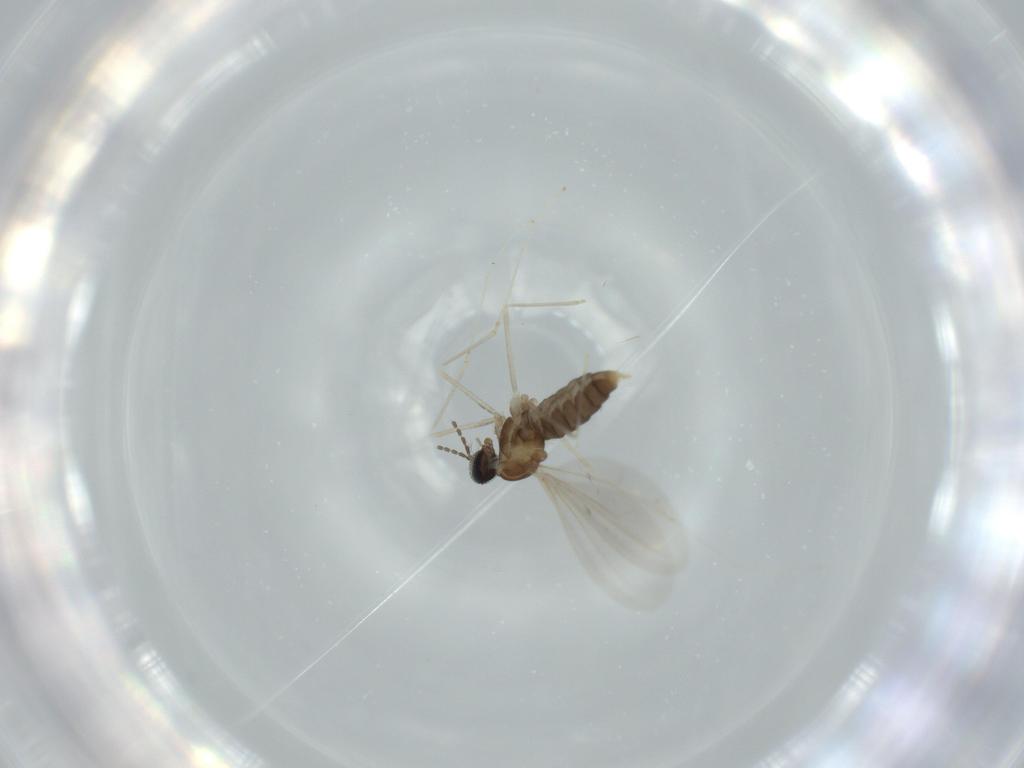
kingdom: Animalia
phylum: Arthropoda
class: Insecta
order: Diptera
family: Cecidomyiidae
